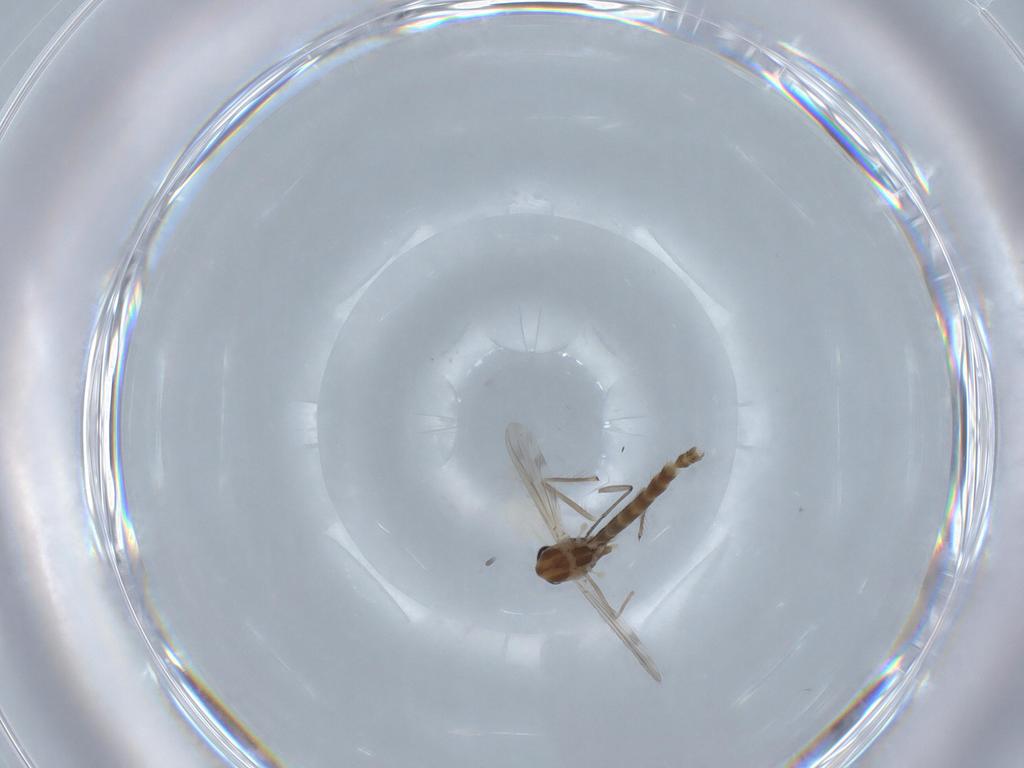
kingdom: Animalia
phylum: Arthropoda
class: Insecta
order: Diptera
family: Chironomidae
